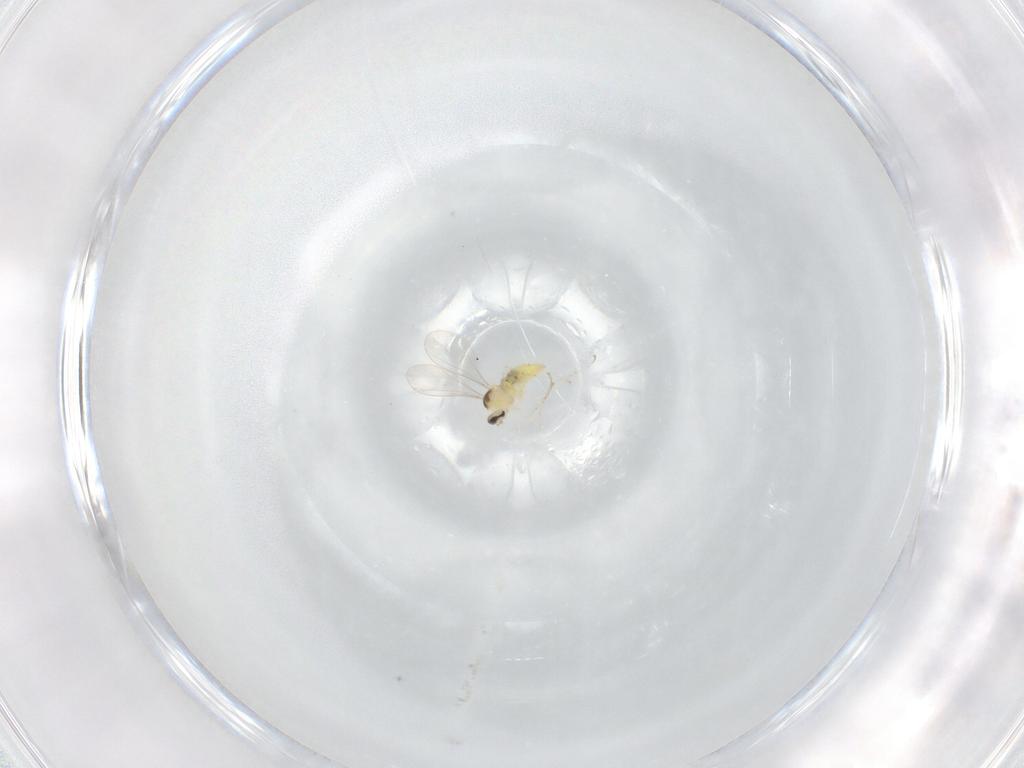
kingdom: Animalia
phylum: Arthropoda
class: Insecta
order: Diptera
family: Cecidomyiidae
